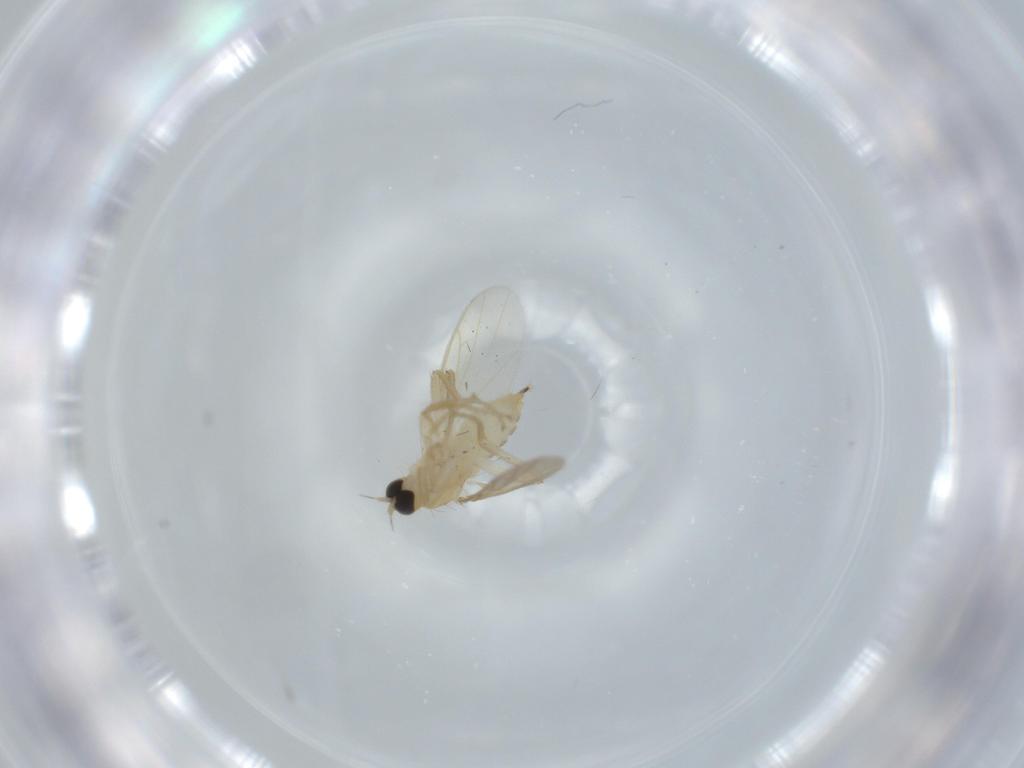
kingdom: Animalia
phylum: Arthropoda
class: Insecta
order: Diptera
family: Hybotidae
